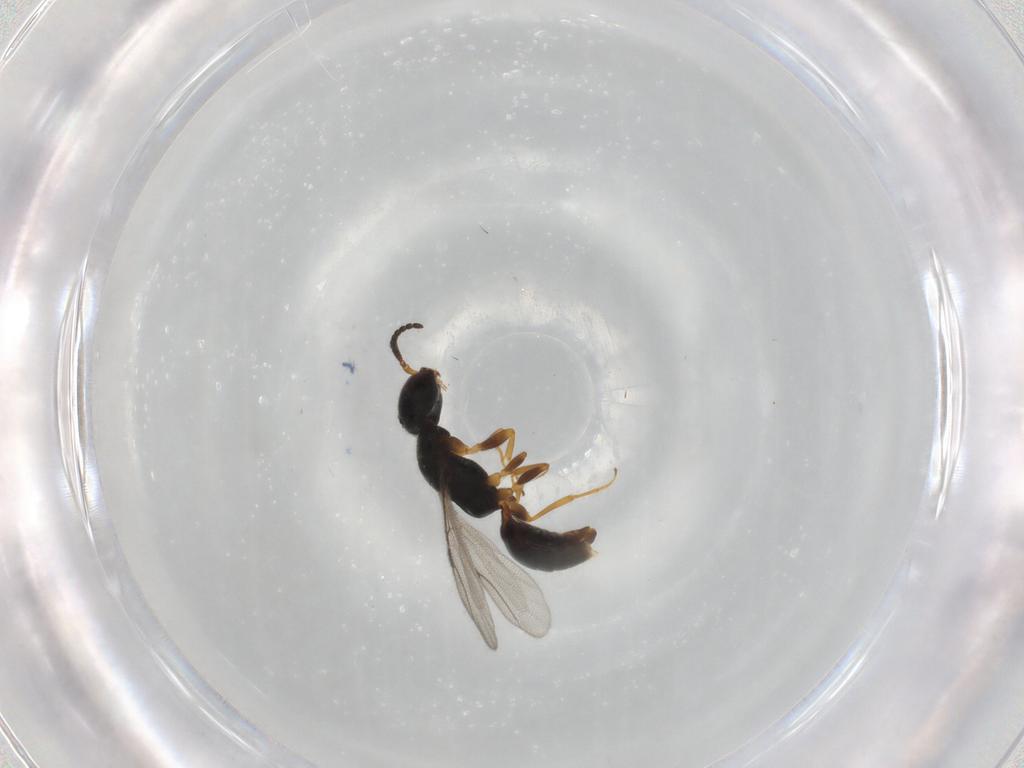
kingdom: Animalia
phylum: Arthropoda
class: Insecta
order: Hymenoptera
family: Bethylidae
